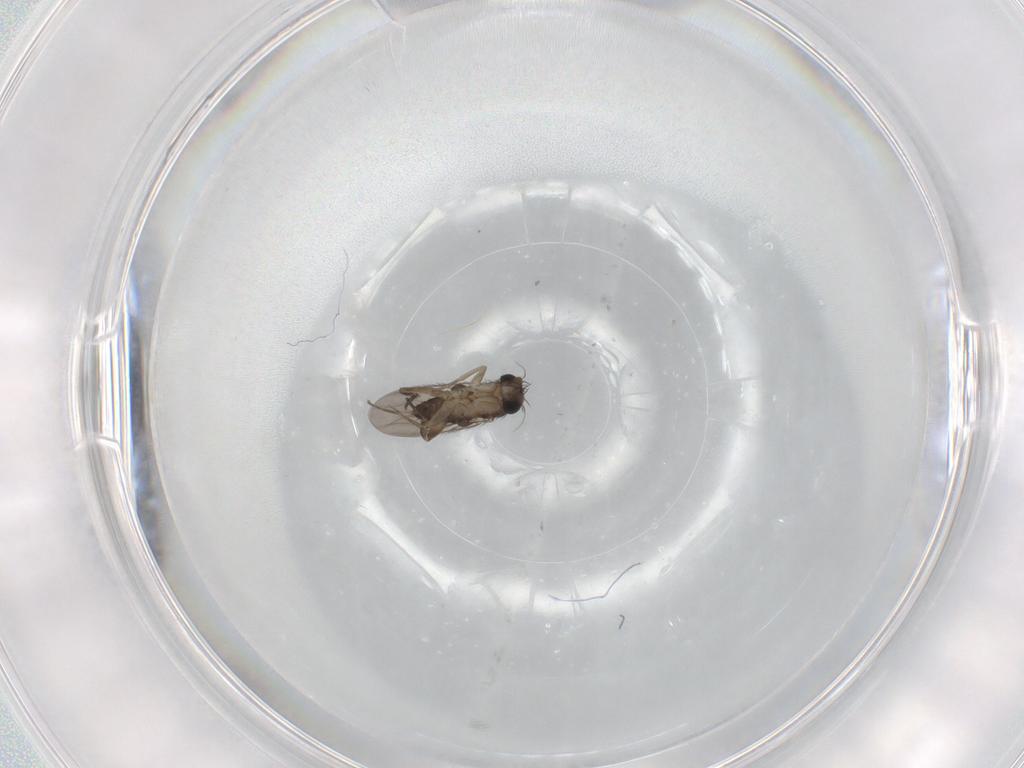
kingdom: Animalia
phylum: Arthropoda
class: Insecta
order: Diptera
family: Phoridae
